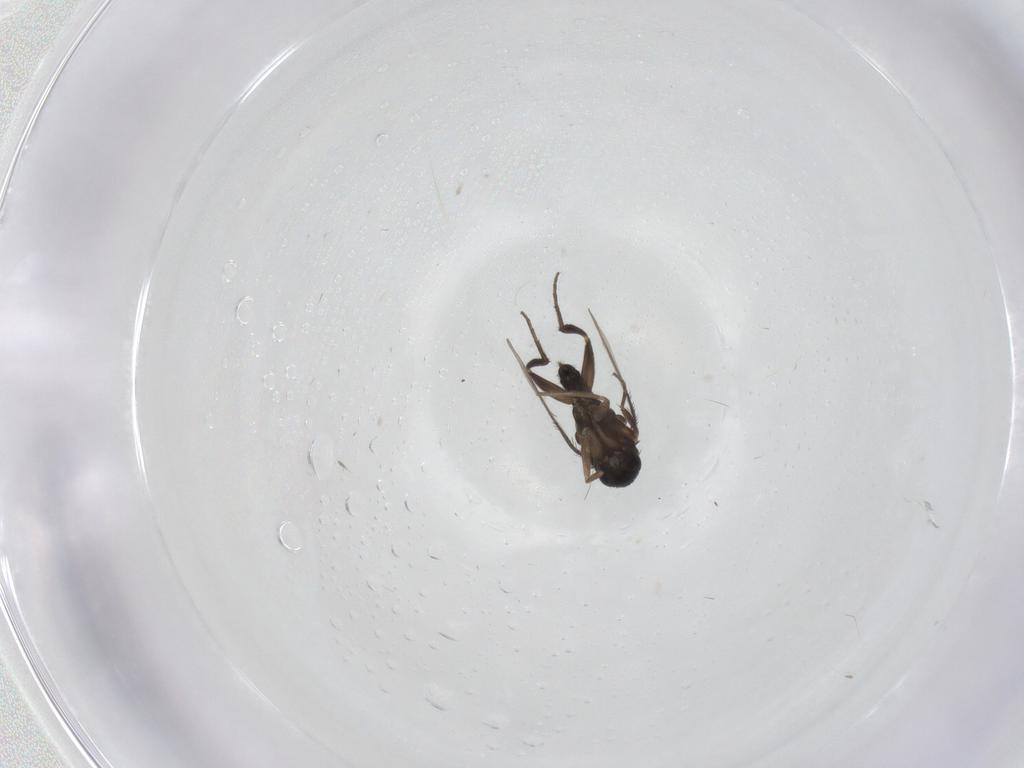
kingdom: Animalia
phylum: Arthropoda
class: Insecta
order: Diptera
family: Phoridae
